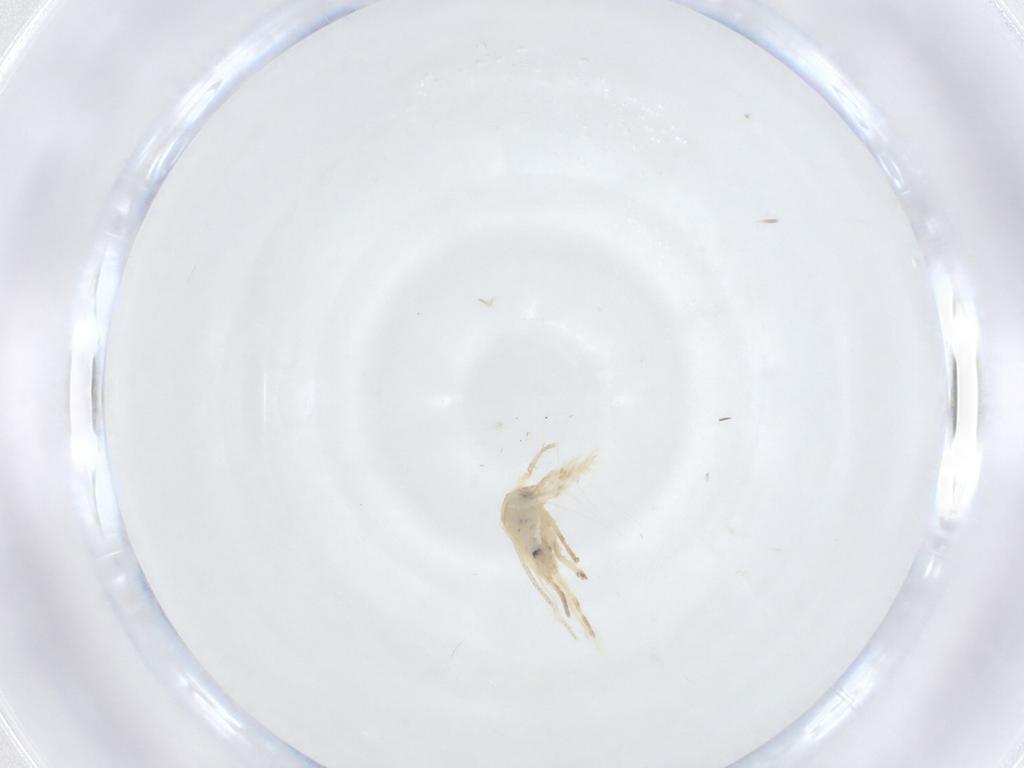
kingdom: Animalia
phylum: Arthropoda
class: Insecta
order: Lepidoptera
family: Nepticulidae
